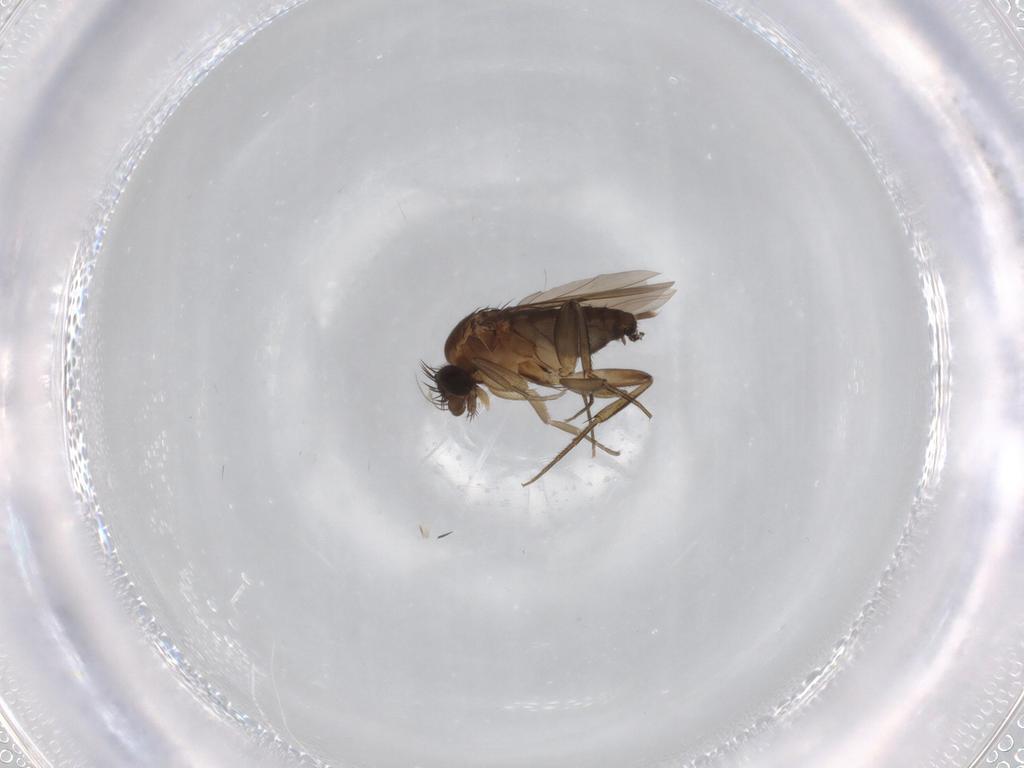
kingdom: Animalia
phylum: Arthropoda
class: Insecta
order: Diptera
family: Phoridae
